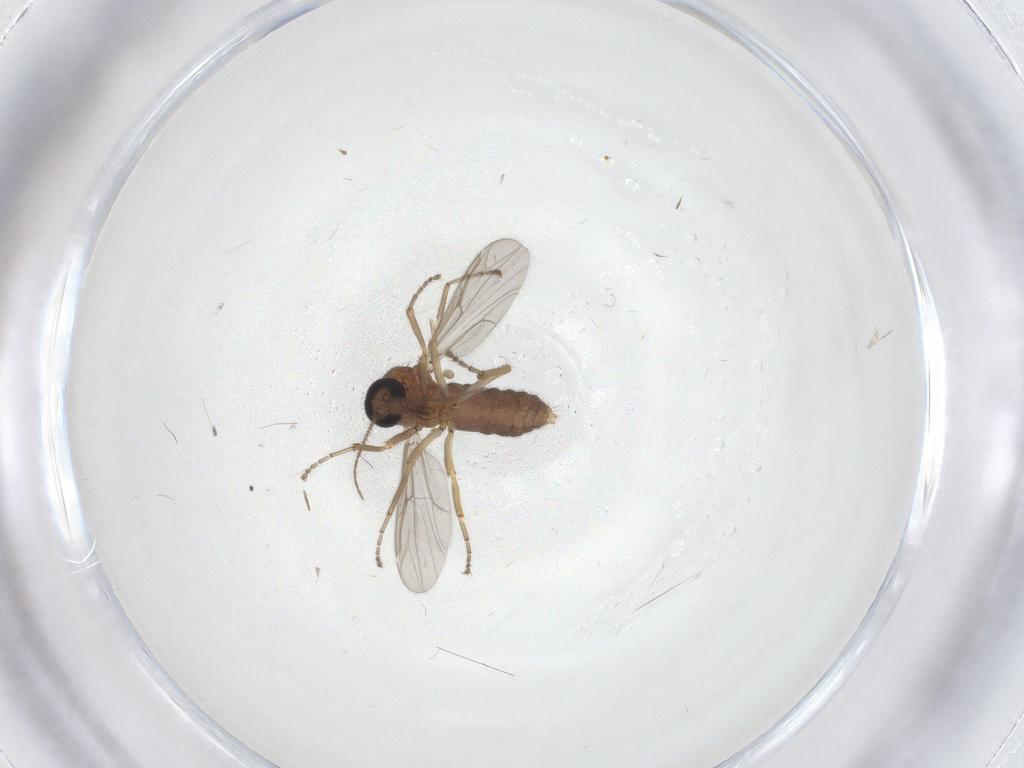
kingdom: Animalia
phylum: Arthropoda
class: Insecta
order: Diptera
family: Ceratopogonidae
